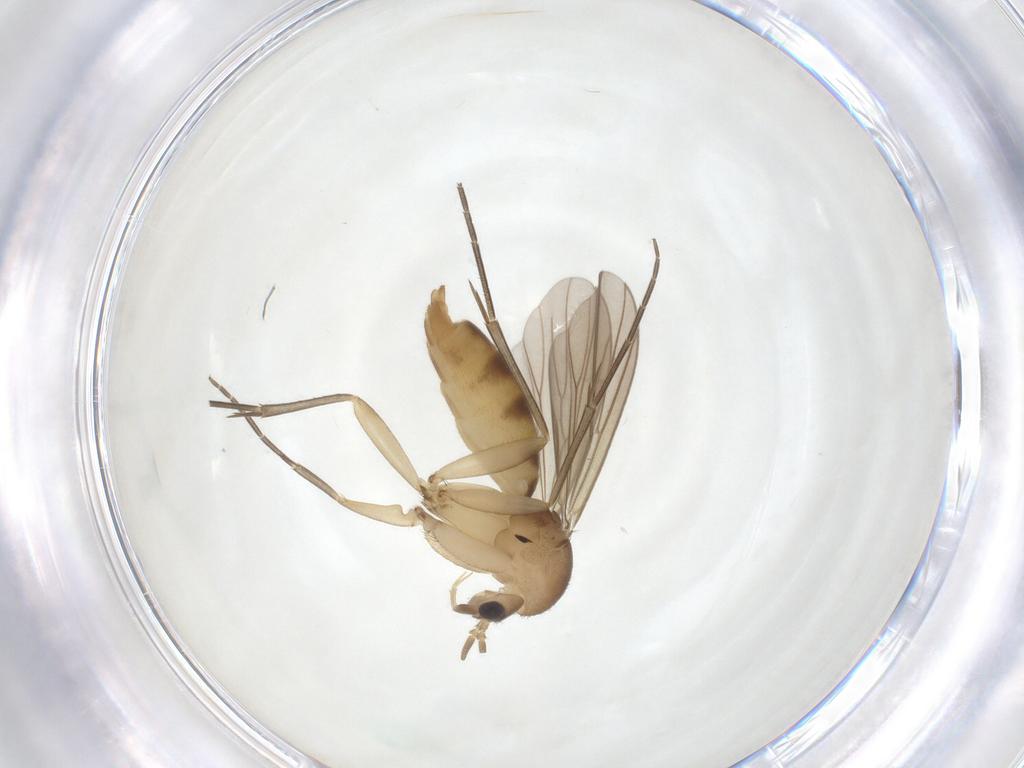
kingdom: Animalia
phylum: Arthropoda
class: Insecta
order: Diptera
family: Mycetophilidae
